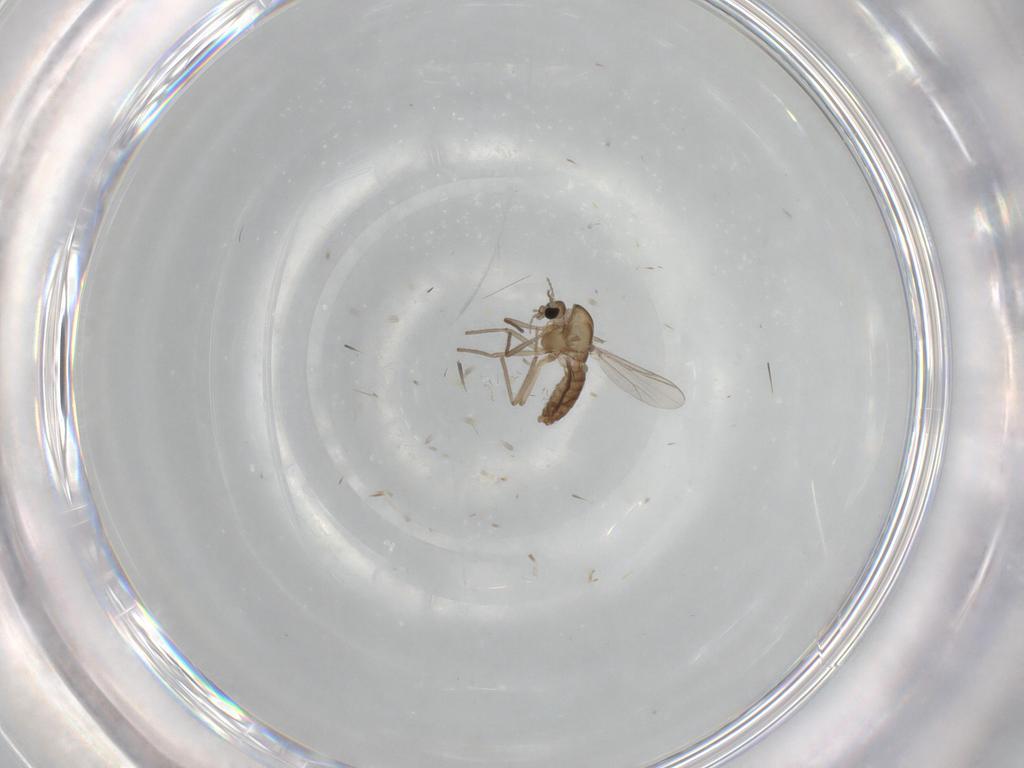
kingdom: Animalia
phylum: Arthropoda
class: Insecta
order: Diptera
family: Chironomidae
